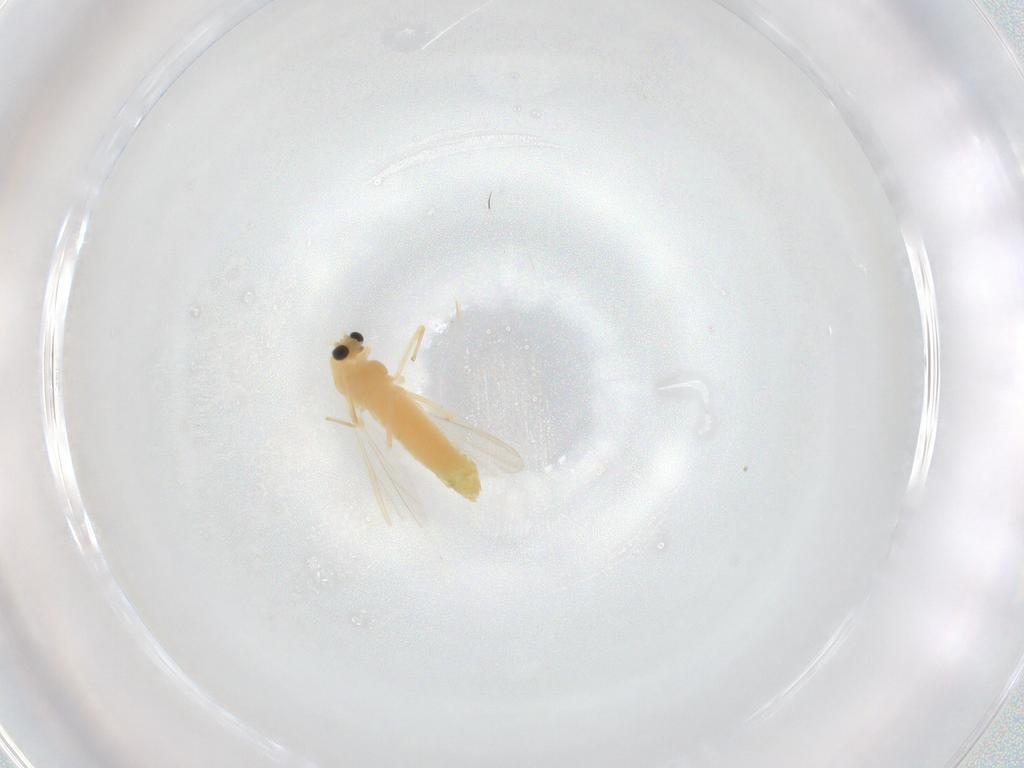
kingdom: Animalia
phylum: Arthropoda
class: Insecta
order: Diptera
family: Chironomidae
